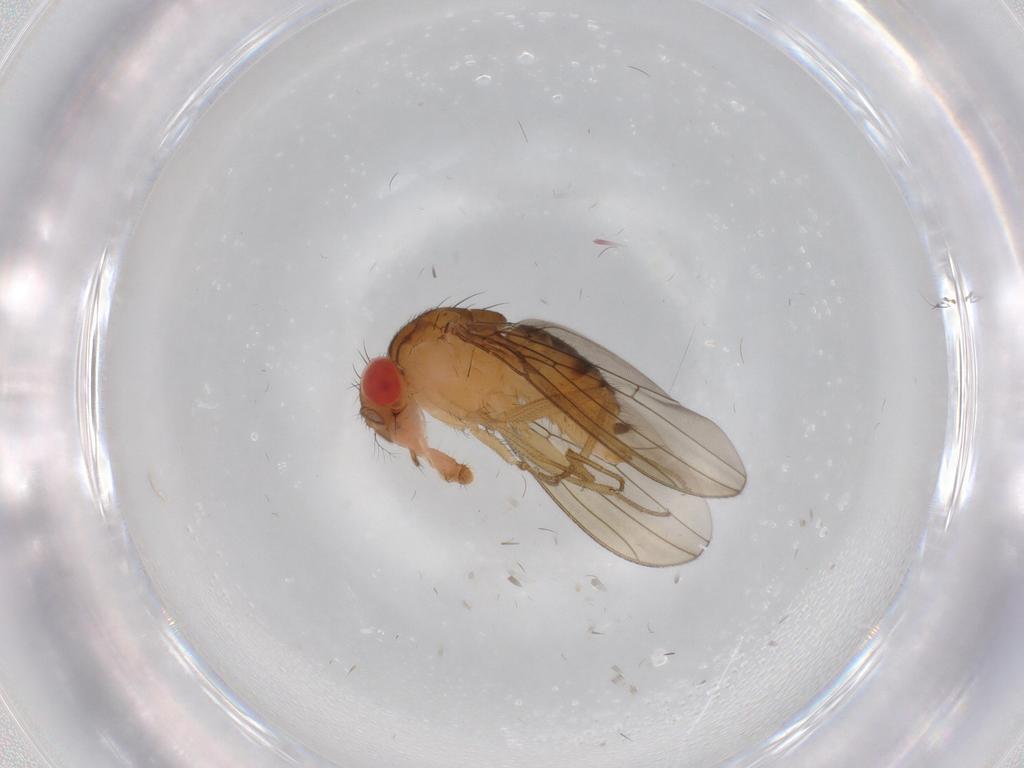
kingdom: Animalia
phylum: Arthropoda
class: Insecta
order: Diptera
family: Drosophilidae
